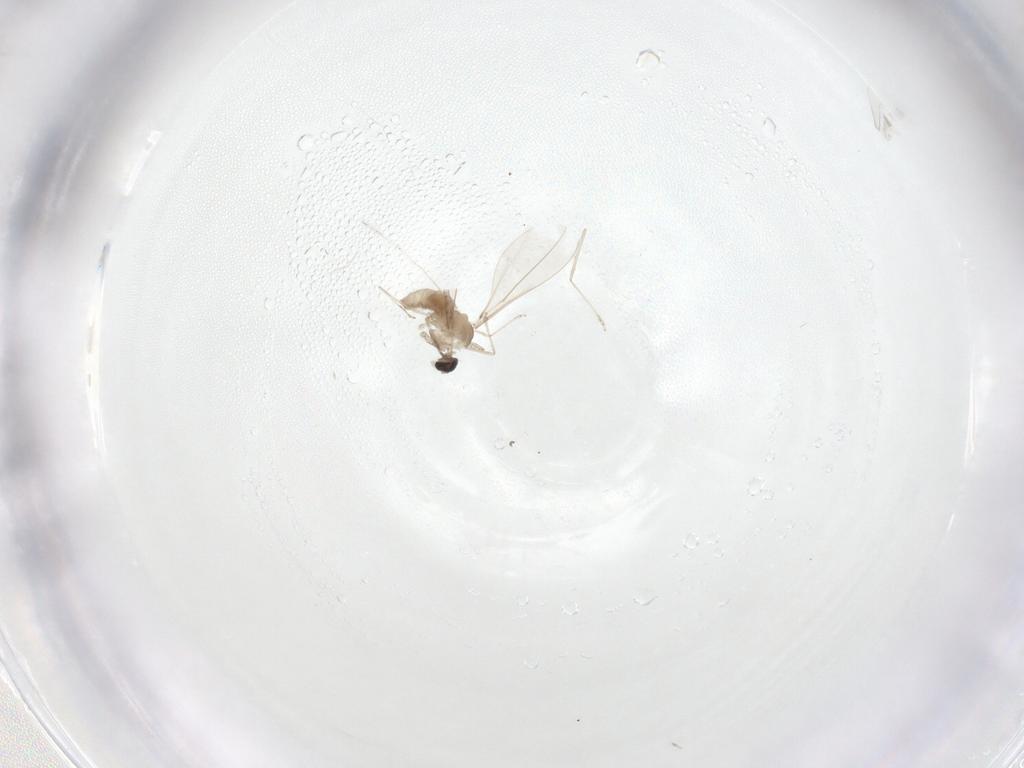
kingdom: Animalia
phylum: Arthropoda
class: Insecta
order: Diptera
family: Cecidomyiidae
